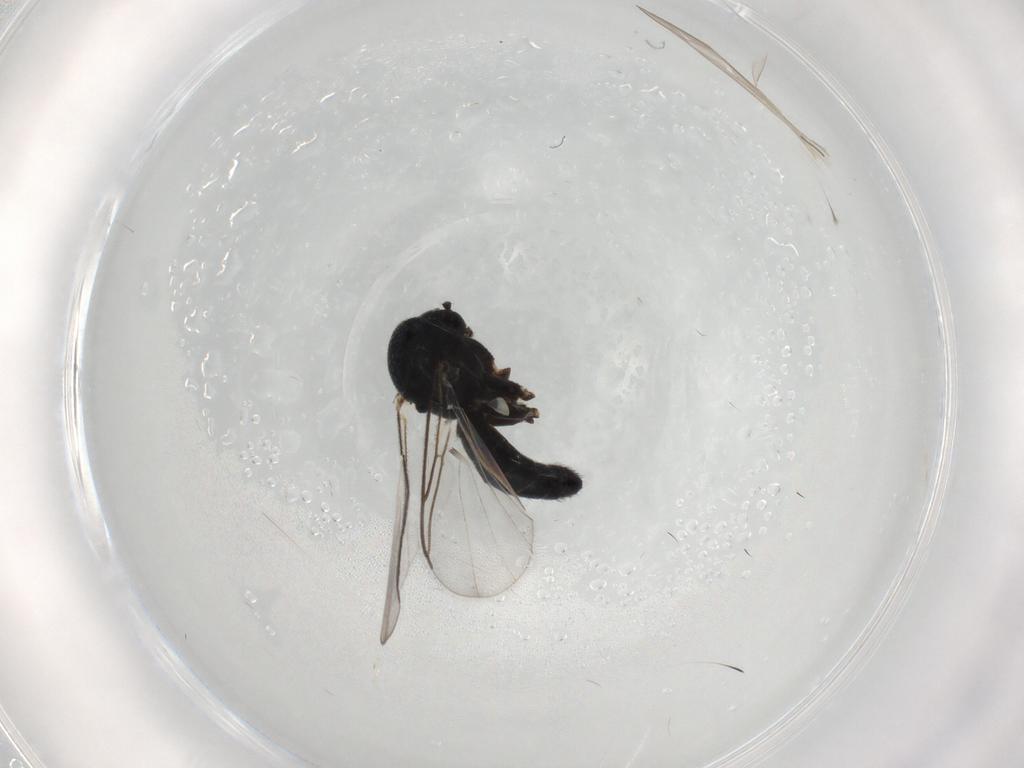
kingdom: Animalia
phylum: Arthropoda
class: Insecta
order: Diptera
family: Mycetophilidae
